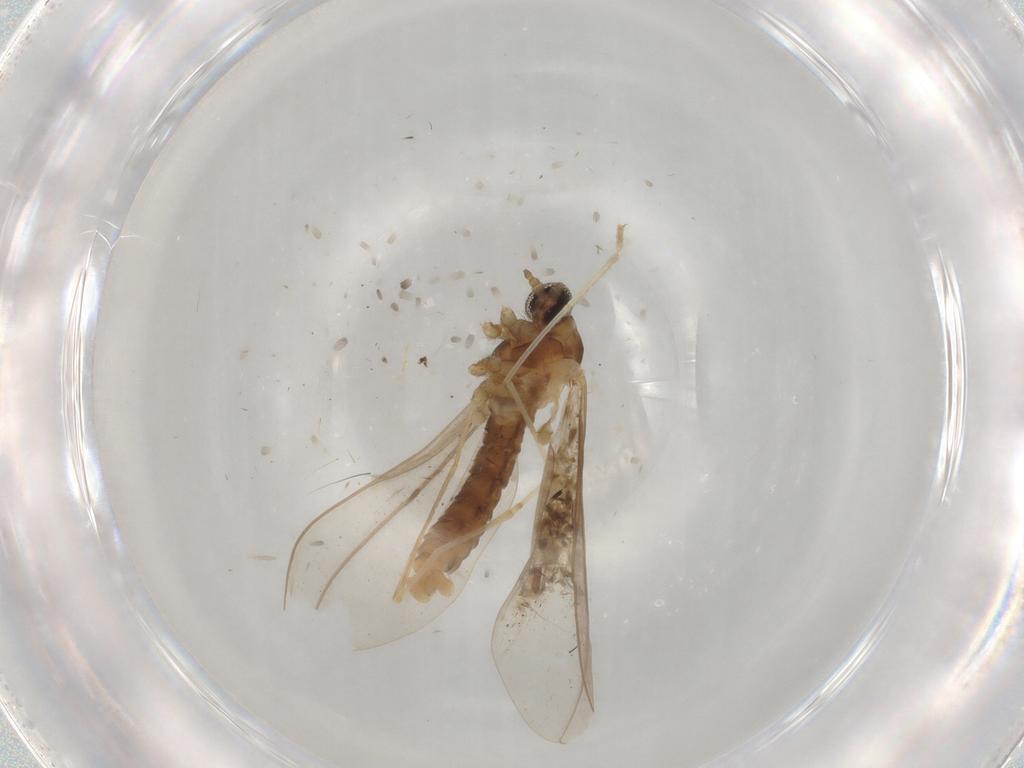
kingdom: Animalia
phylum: Arthropoda
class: Insecta
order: Diptera
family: Cecidomyiidae
